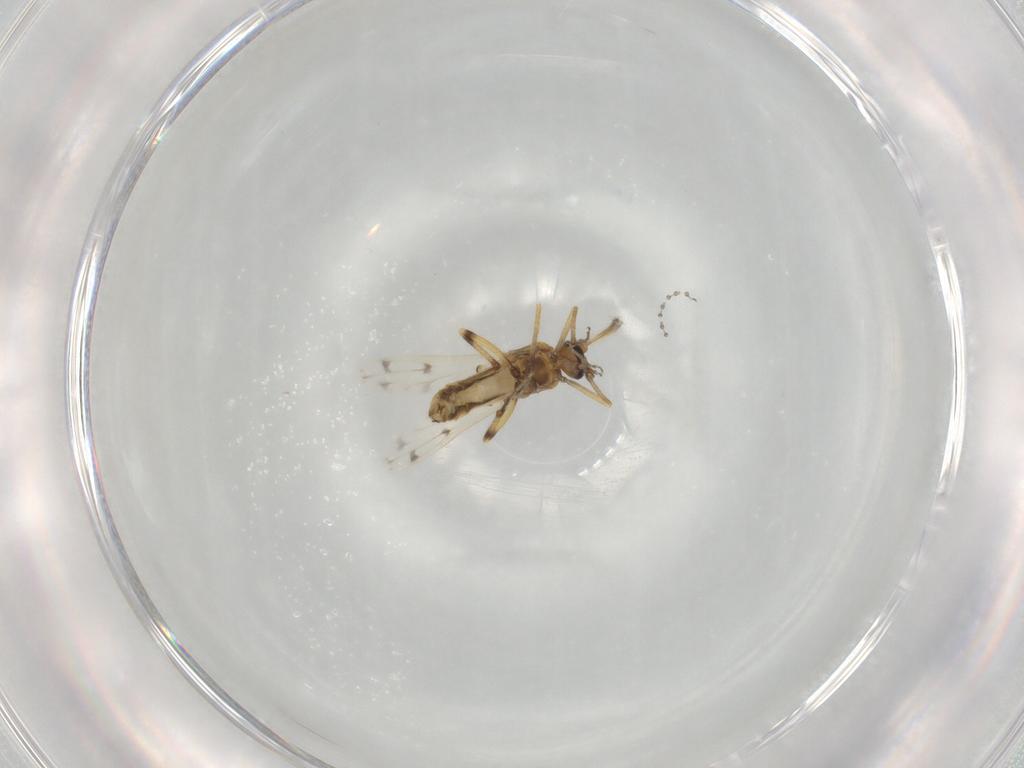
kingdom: Animalia
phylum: Arthropoda
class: Insecta
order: Diptera
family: Ceratopogonidae
